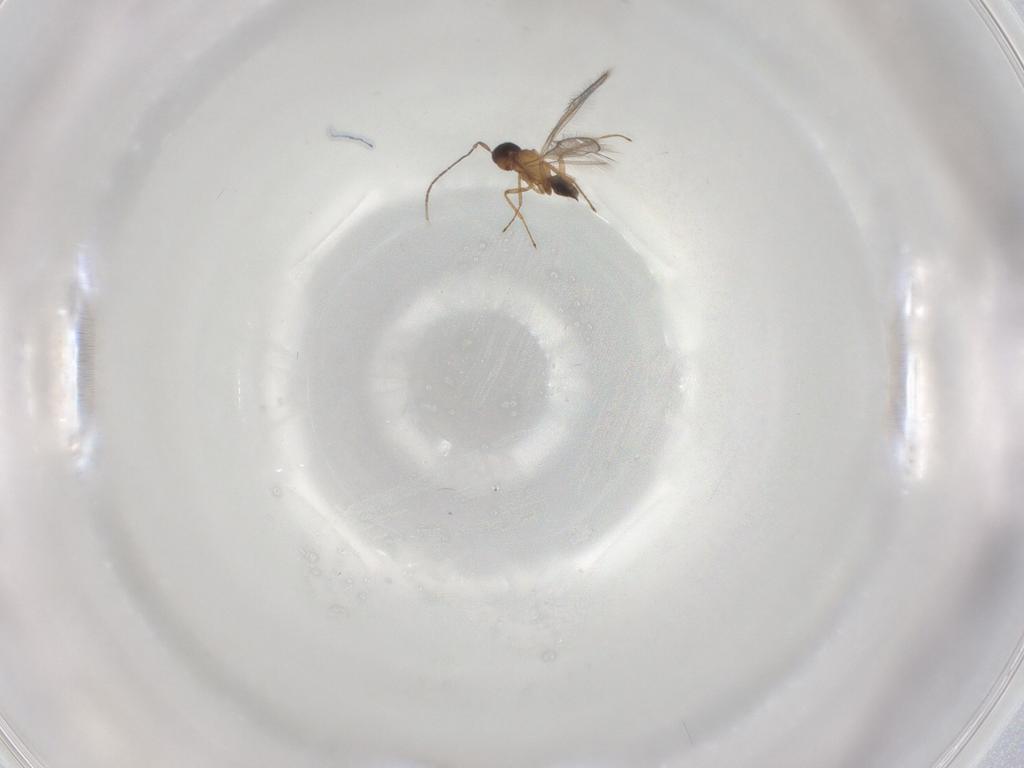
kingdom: Animalia
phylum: Arthropoda
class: Insecta
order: Hymenoptera
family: Mymaridae
